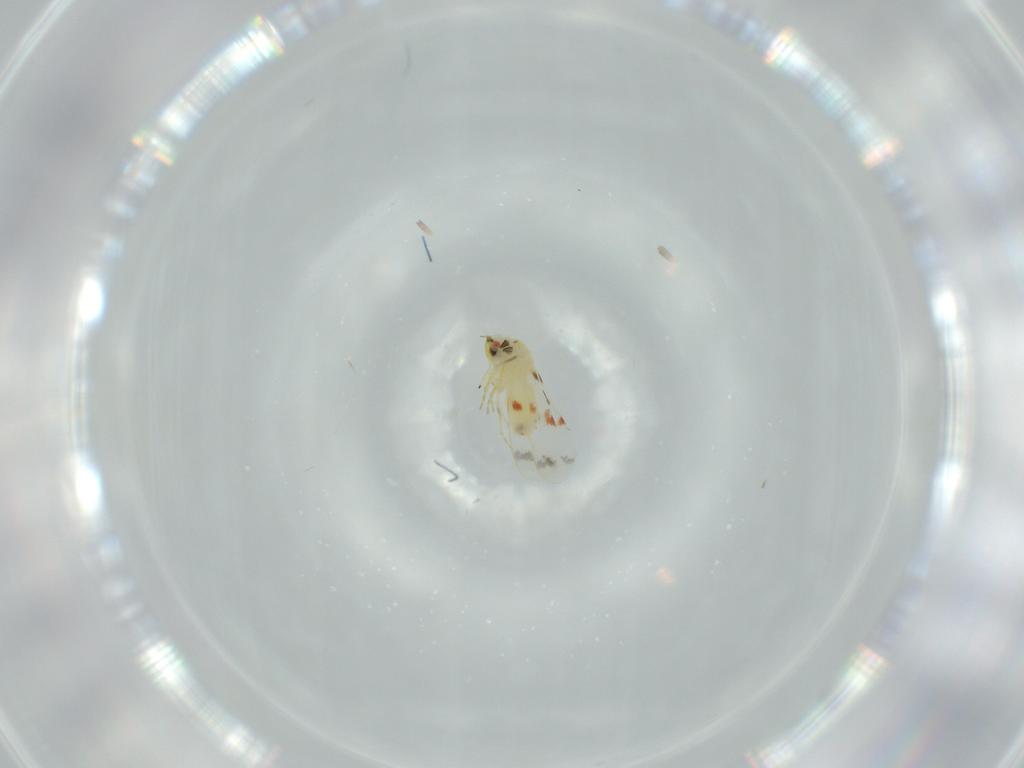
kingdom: Animalia
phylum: Arthropoda
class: Insecta
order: Hemiptera
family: Aleyrodidae
